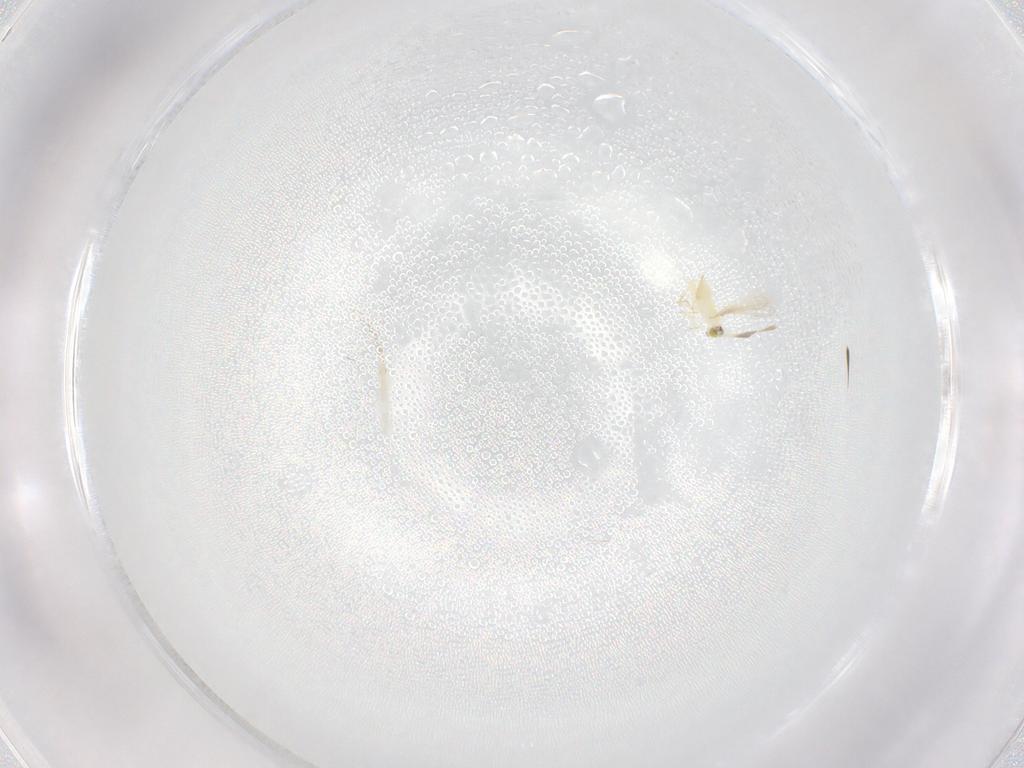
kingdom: Animalia
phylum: Arthropoda
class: Insecta
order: Hymenoptera
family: Mymaridae
